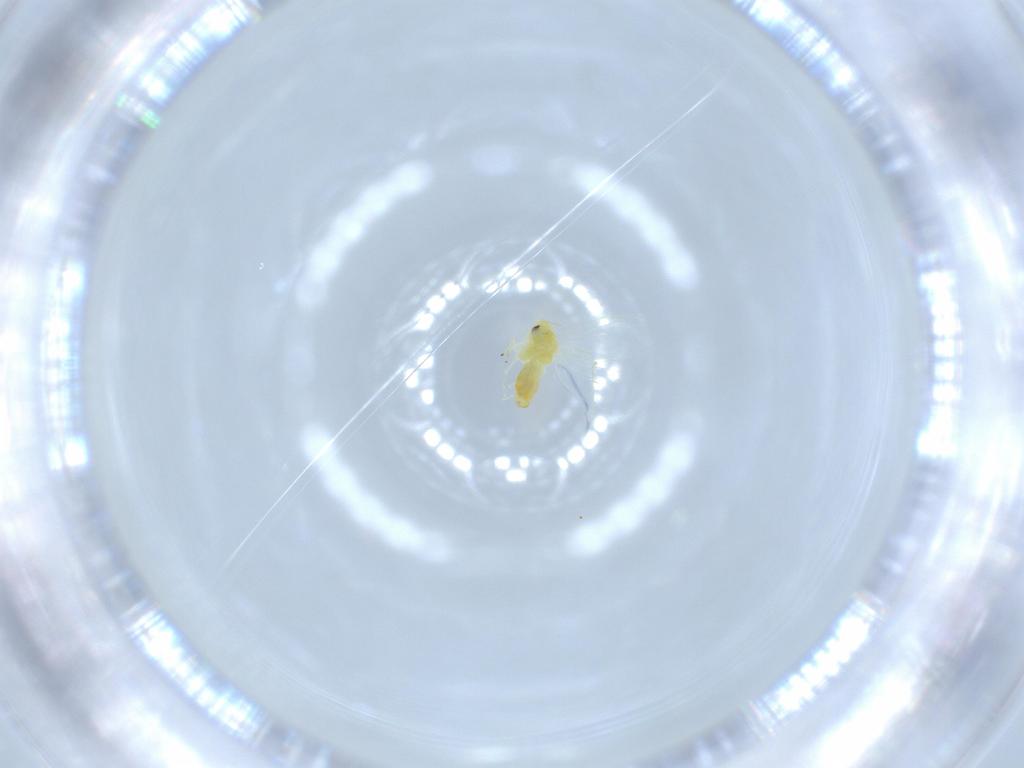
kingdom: Animalia
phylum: Arthropoda
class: Insecta
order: Hemiptera
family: Aleyrodidae
